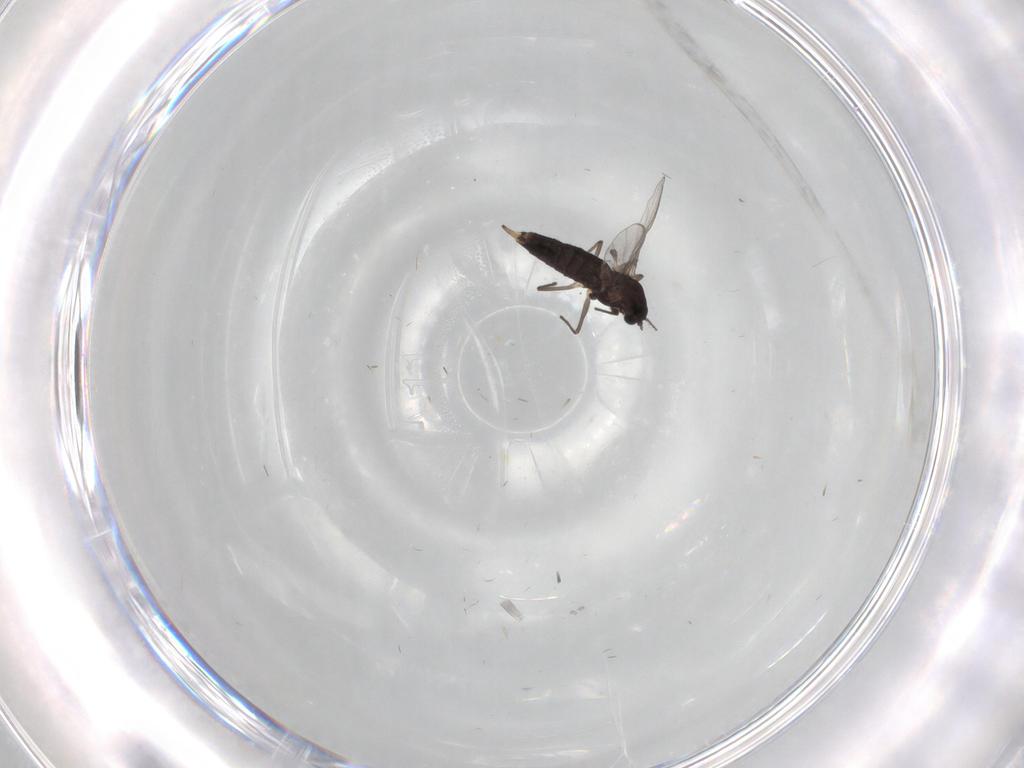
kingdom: Animalia
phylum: Arthropoda
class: Insecta
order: Diptera
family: Chironomidae
